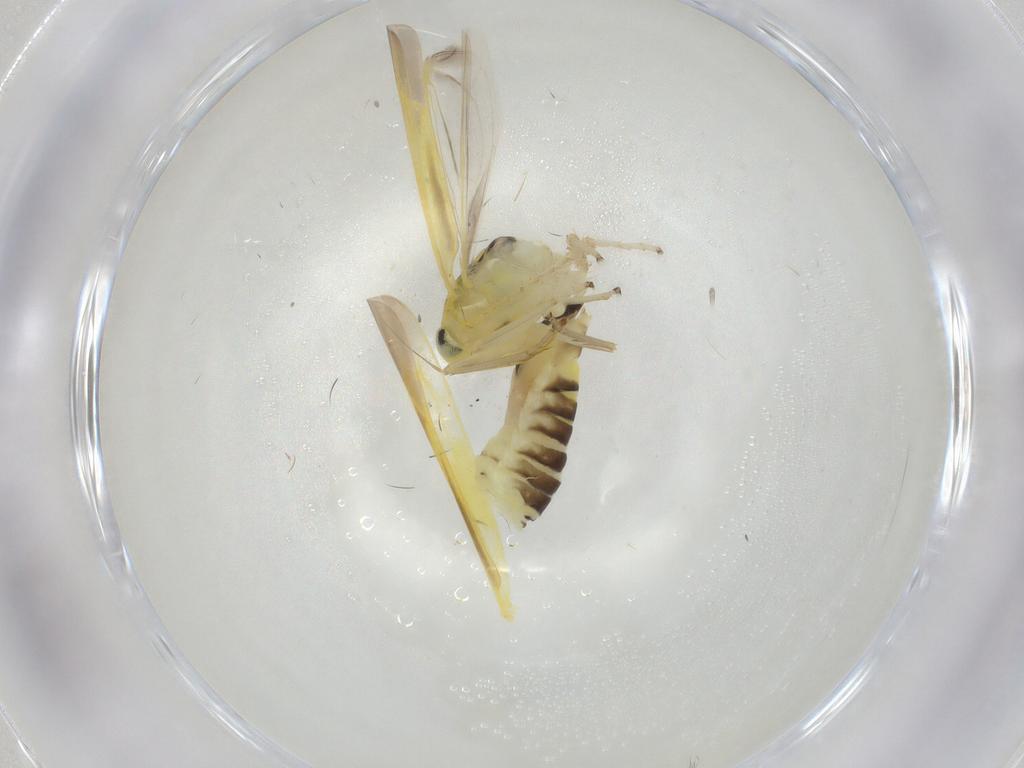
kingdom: Animalia
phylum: Arthropoda
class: Insecta
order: Hemiptera
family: Cicadellidae
